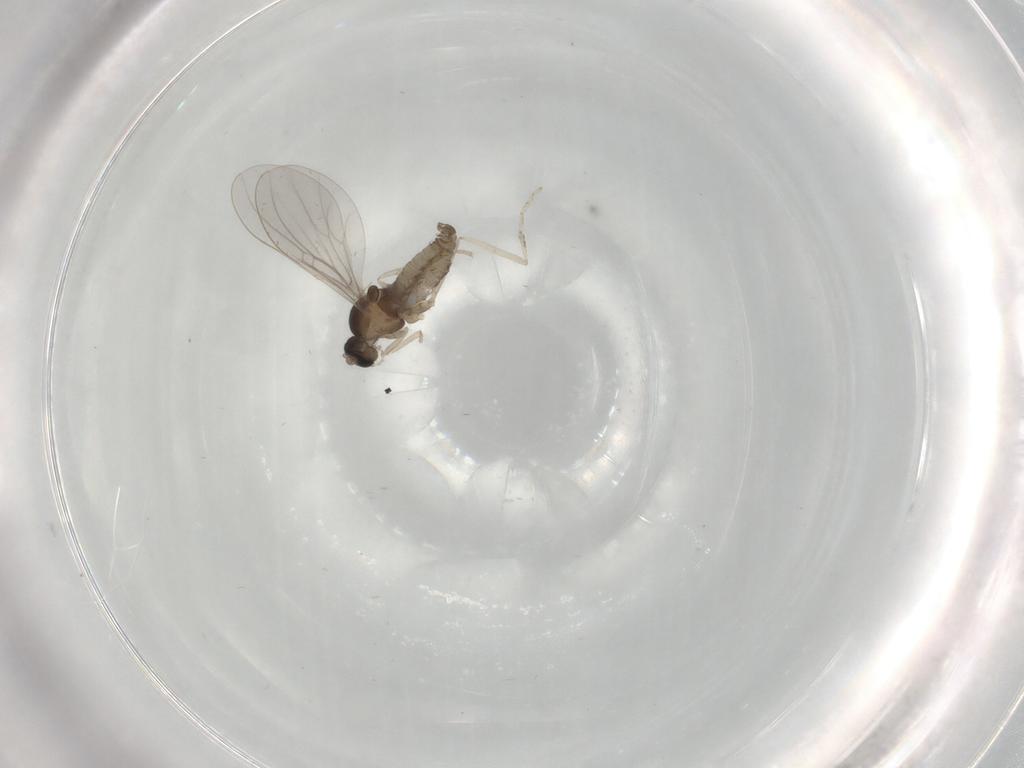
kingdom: Animalia
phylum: Arthropoda
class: Insecta
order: Diptera
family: Cecidomyiidae
